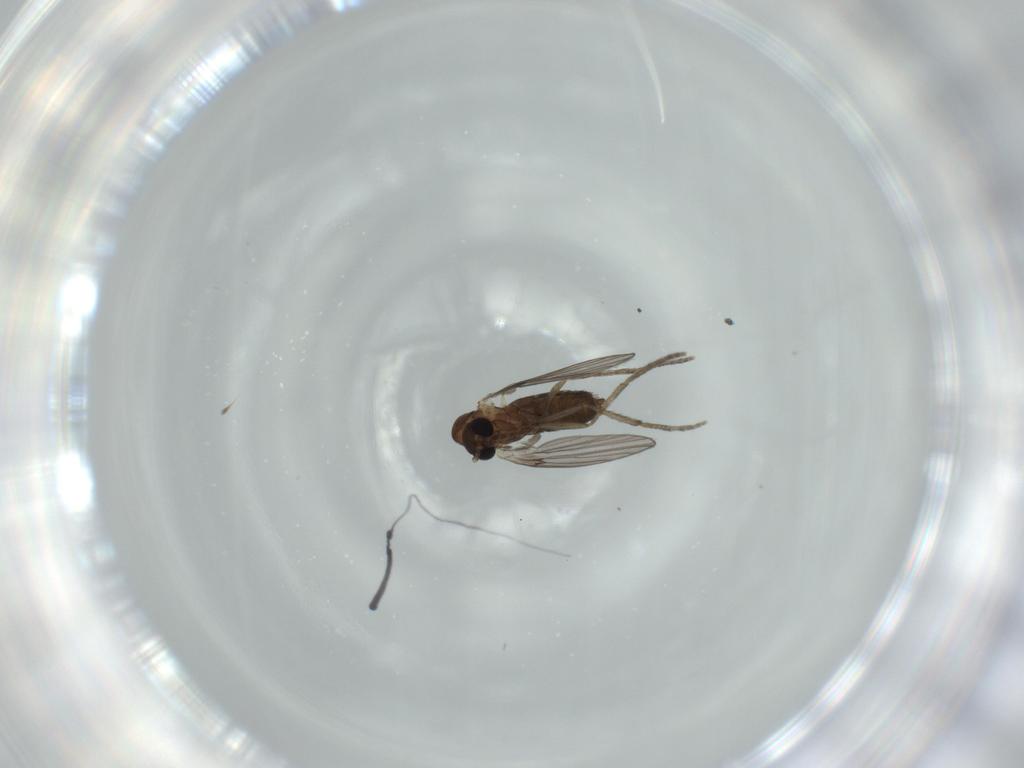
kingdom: Animalia
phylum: Arthropoda
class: Insecta
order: Diptera
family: Psychodidae
